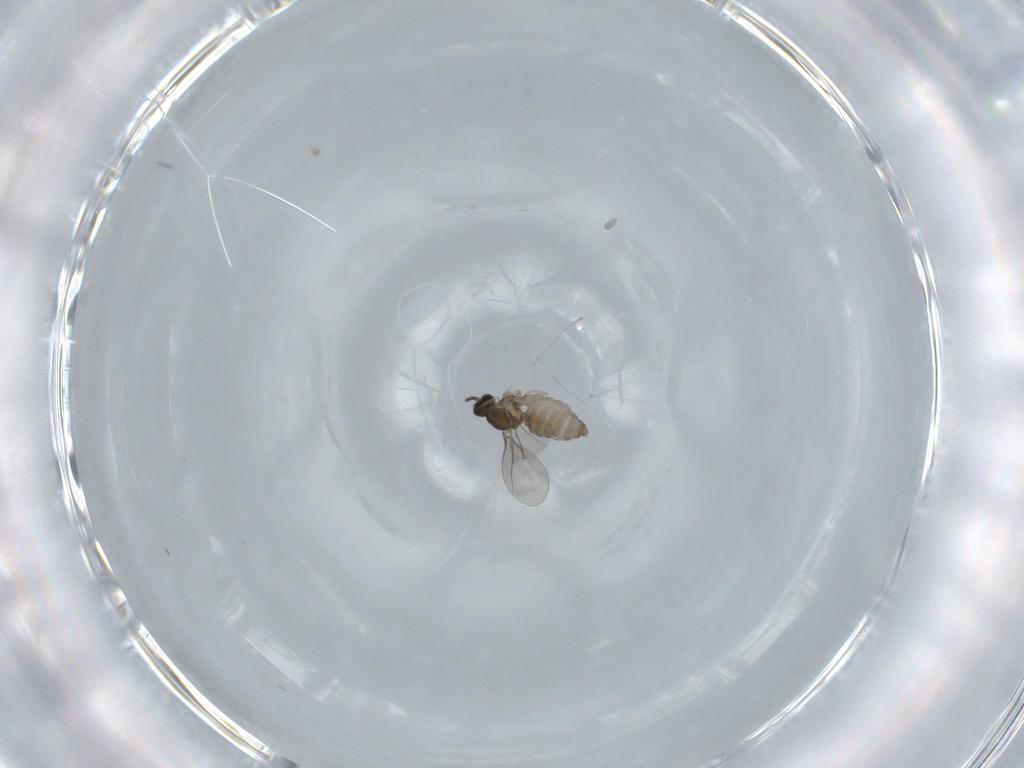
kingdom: Animalia
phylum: Arthropoda
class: Insecta
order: Diptera
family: Cecidomyiidae
